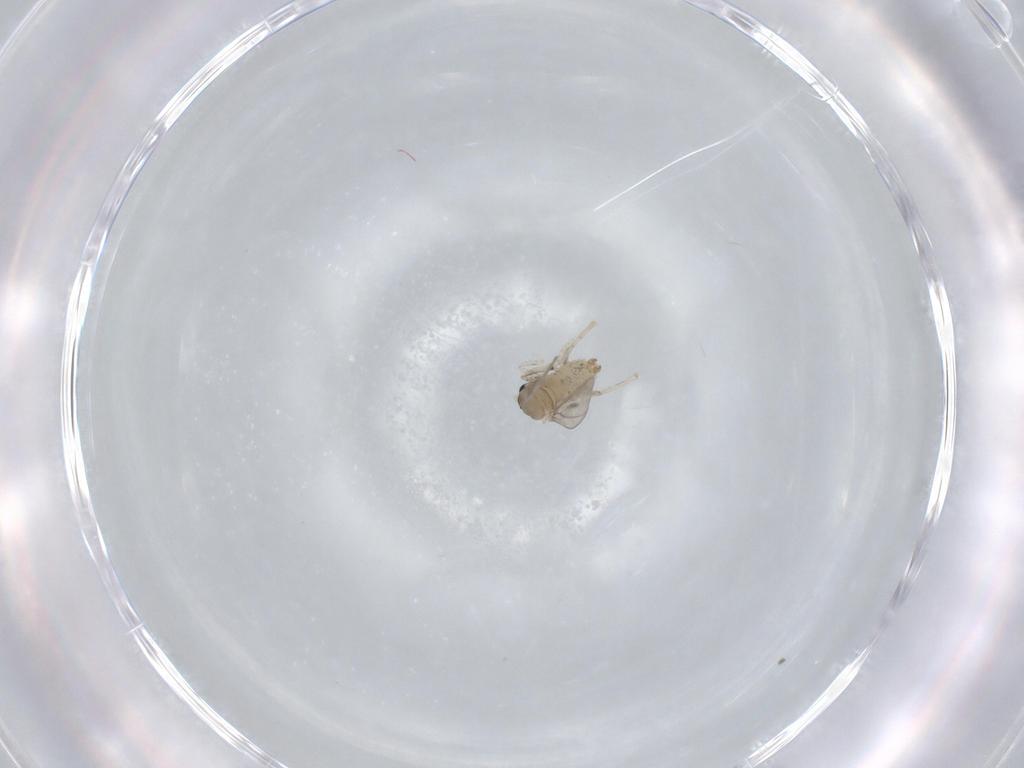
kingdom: Animalia
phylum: Arthropoda
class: Insecta
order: Diptera
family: Cecidomyiidae
